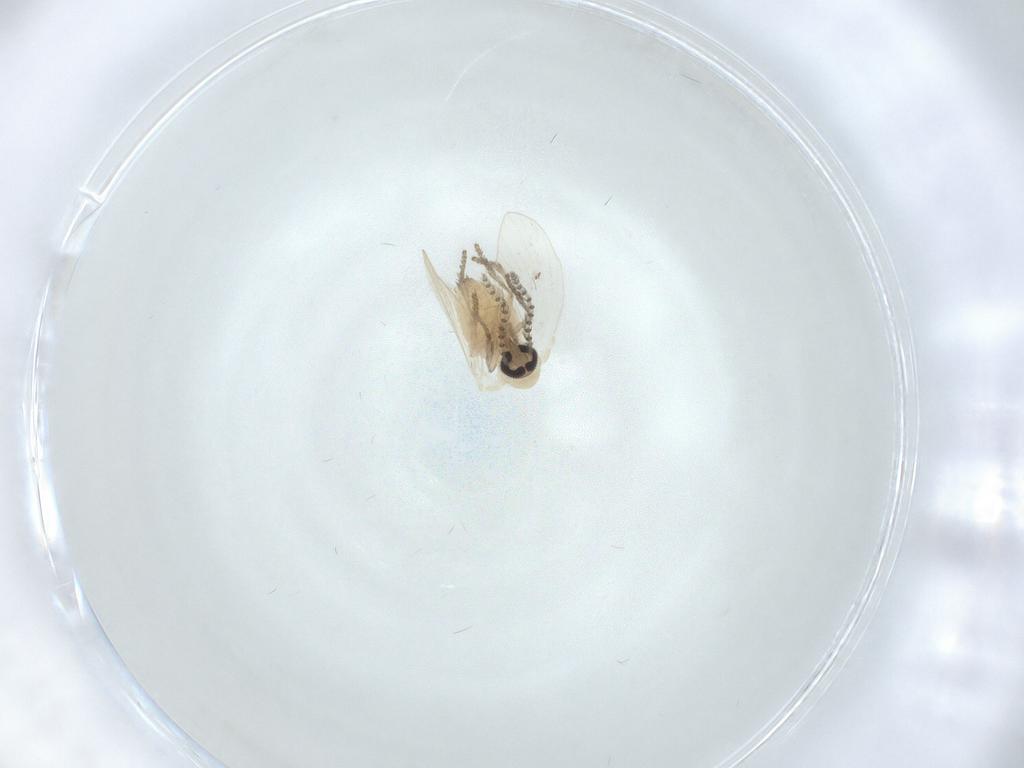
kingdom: Animalia
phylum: Arthropoda
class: Insecta
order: Diptera
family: Psychodidae
